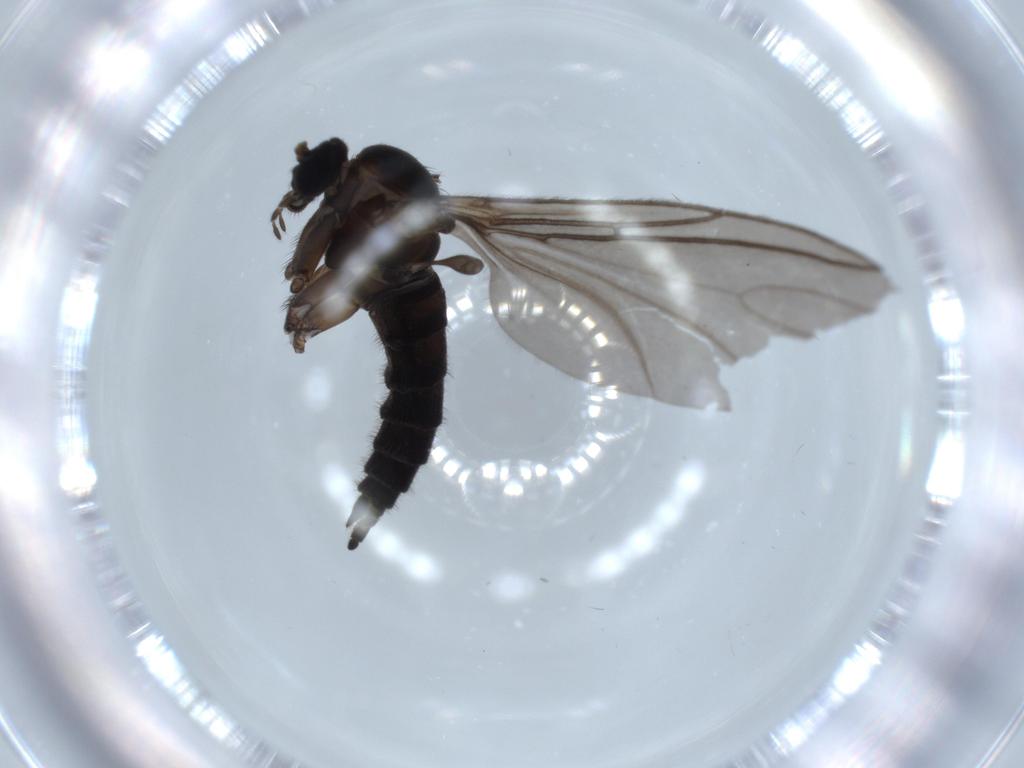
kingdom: Animalia
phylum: Arthropoda
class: Insecta
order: Diptera
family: Sciaridae
